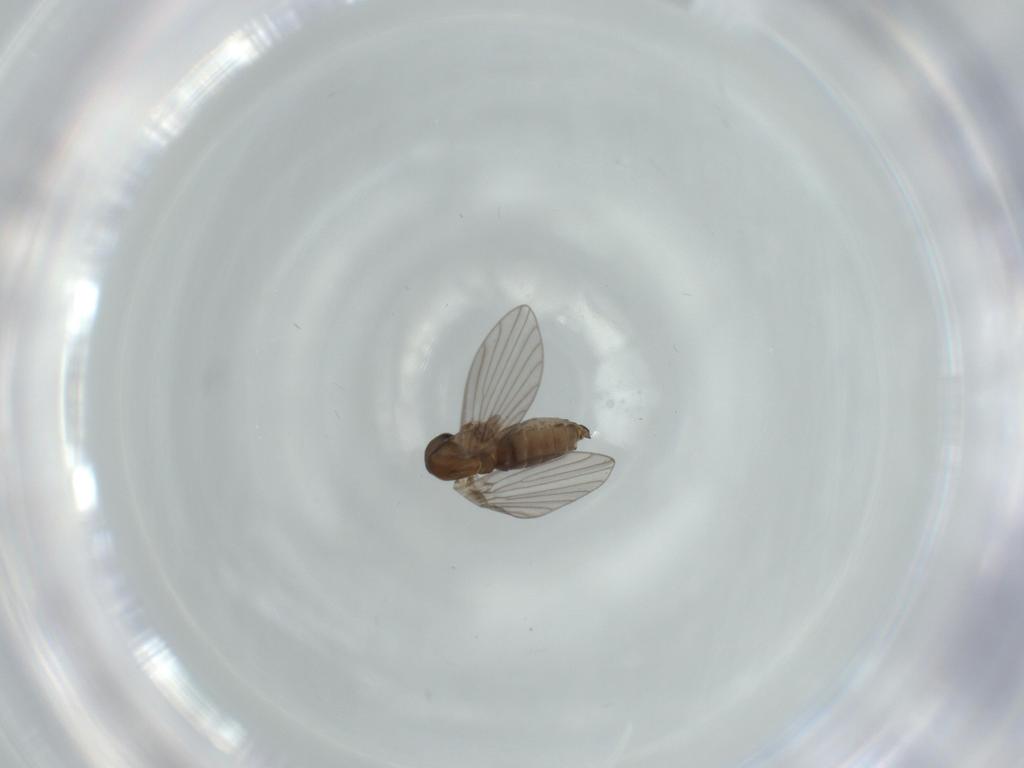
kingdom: Animalia
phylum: Arthropoda
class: Insecta
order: Diptera
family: Psychodidae
